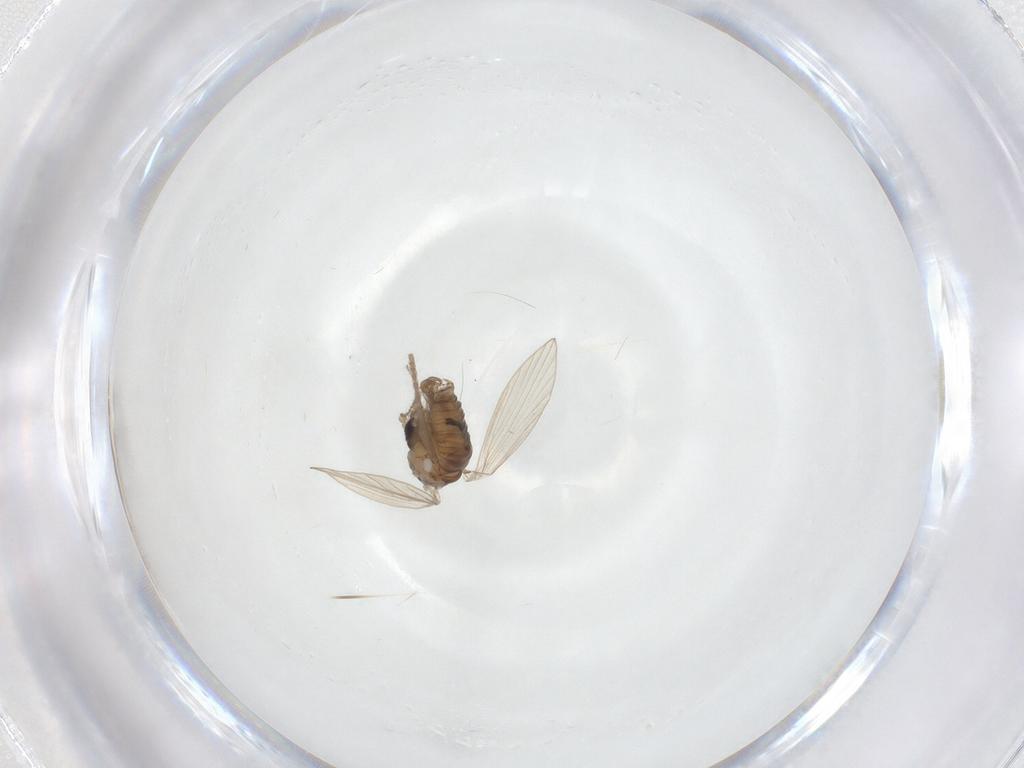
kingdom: Animalia
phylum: Arthropoda
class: Insecta
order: Diptera
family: Psychodidae
